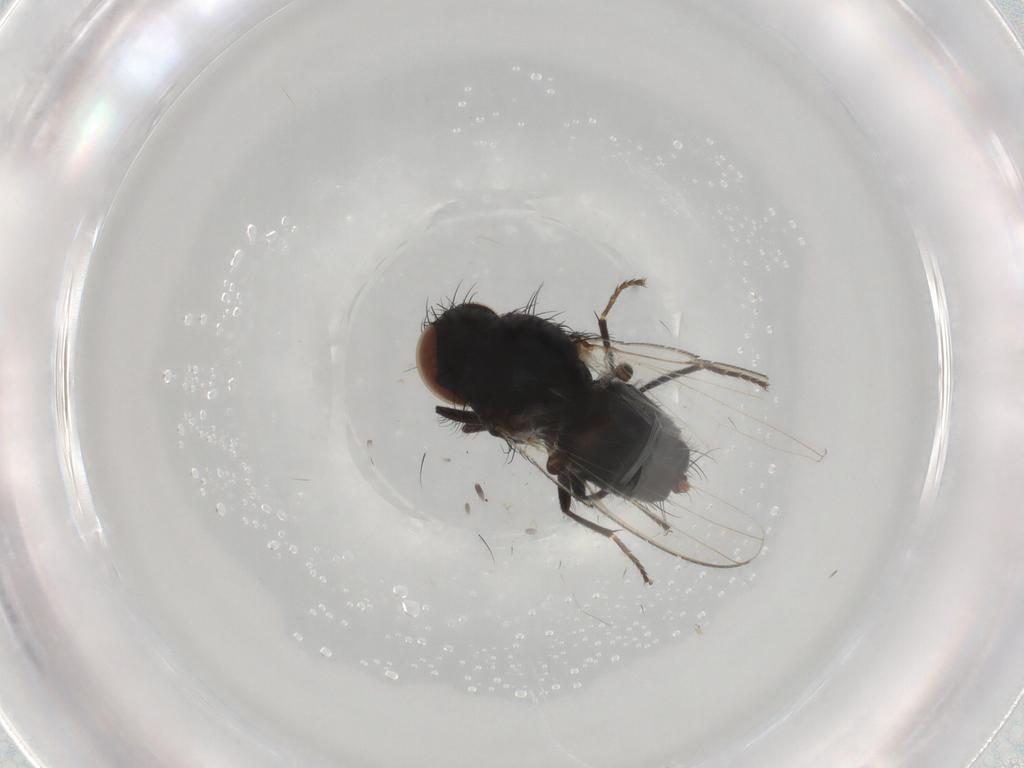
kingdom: Animalia
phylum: Arthropoda
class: Insecta
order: Diptera
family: Milichiidae
